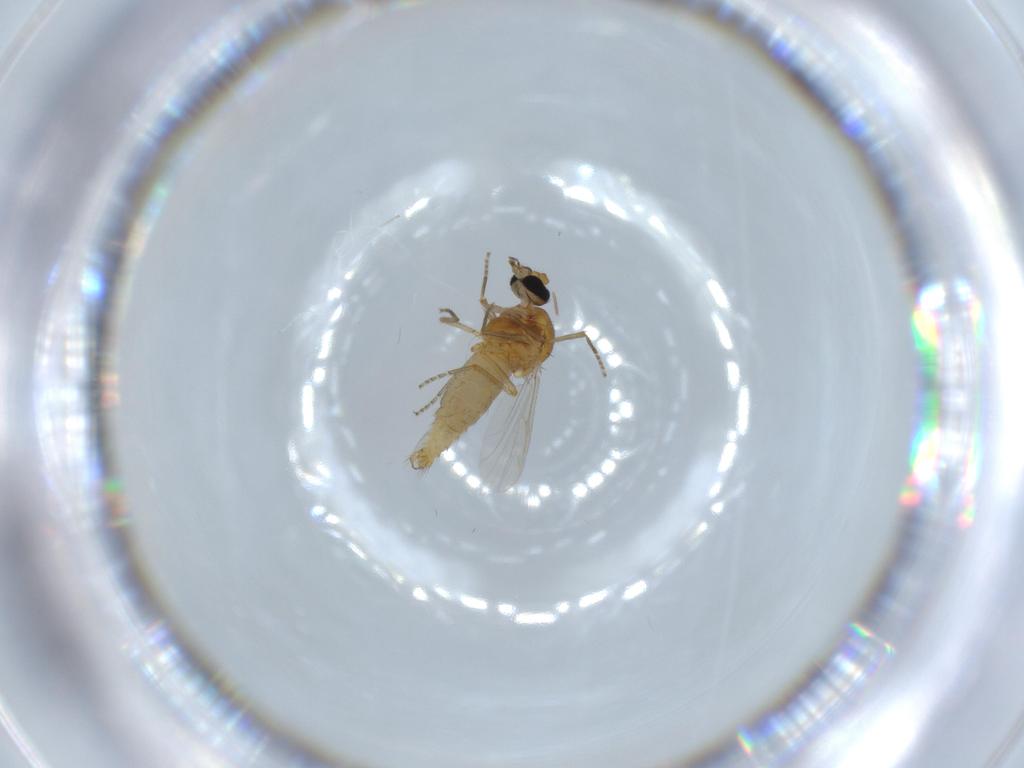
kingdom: Animalia
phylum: Arthropoda
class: Insecta
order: Diptera
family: Ceratopogonidae
